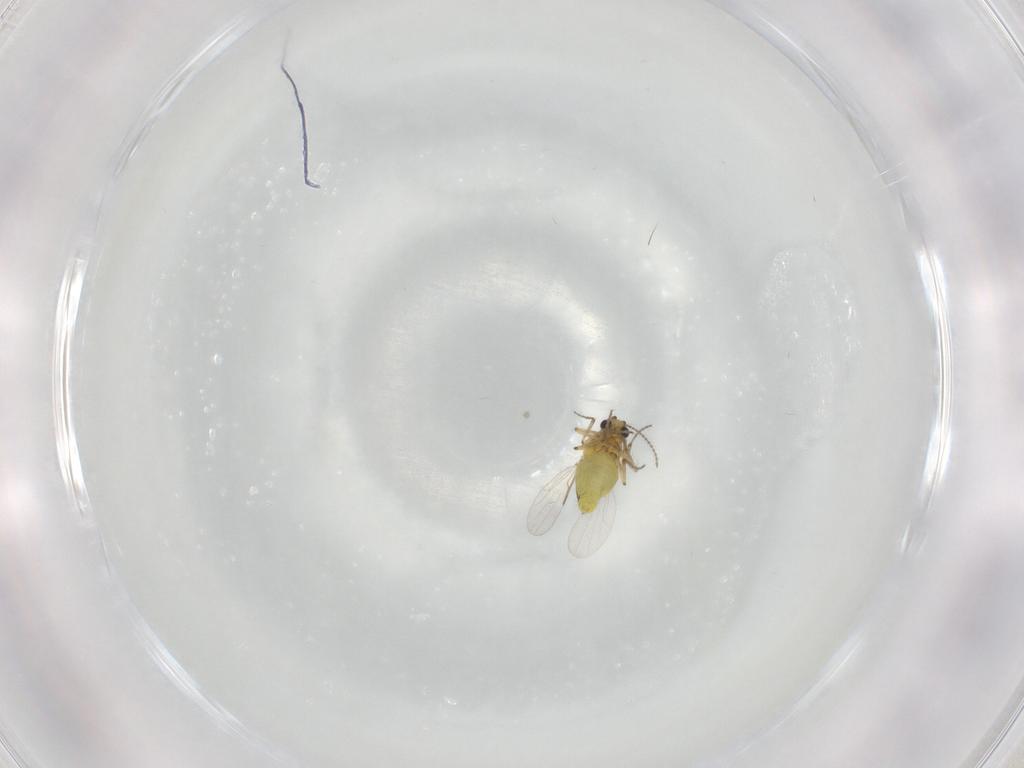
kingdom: Animalia
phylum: Arthropoda
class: Insecta
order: Diptera
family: Ceratopogonidae
